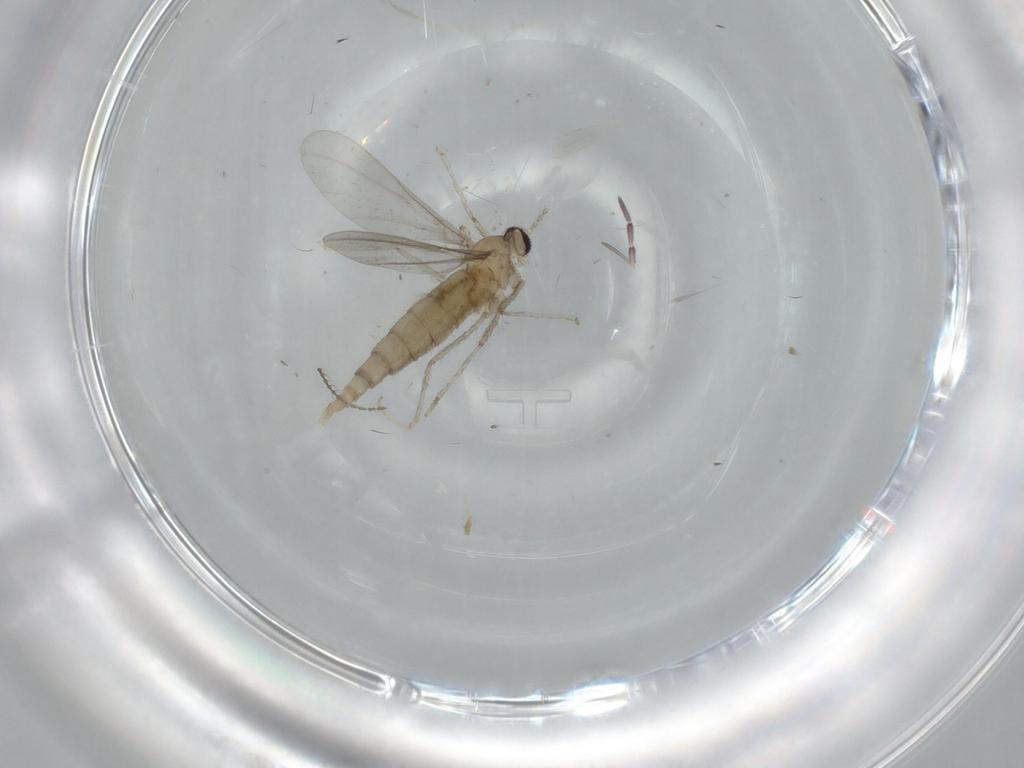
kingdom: Animalia
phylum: Arthropoda
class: Insecta
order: Diptera
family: Cecidomyiidae
